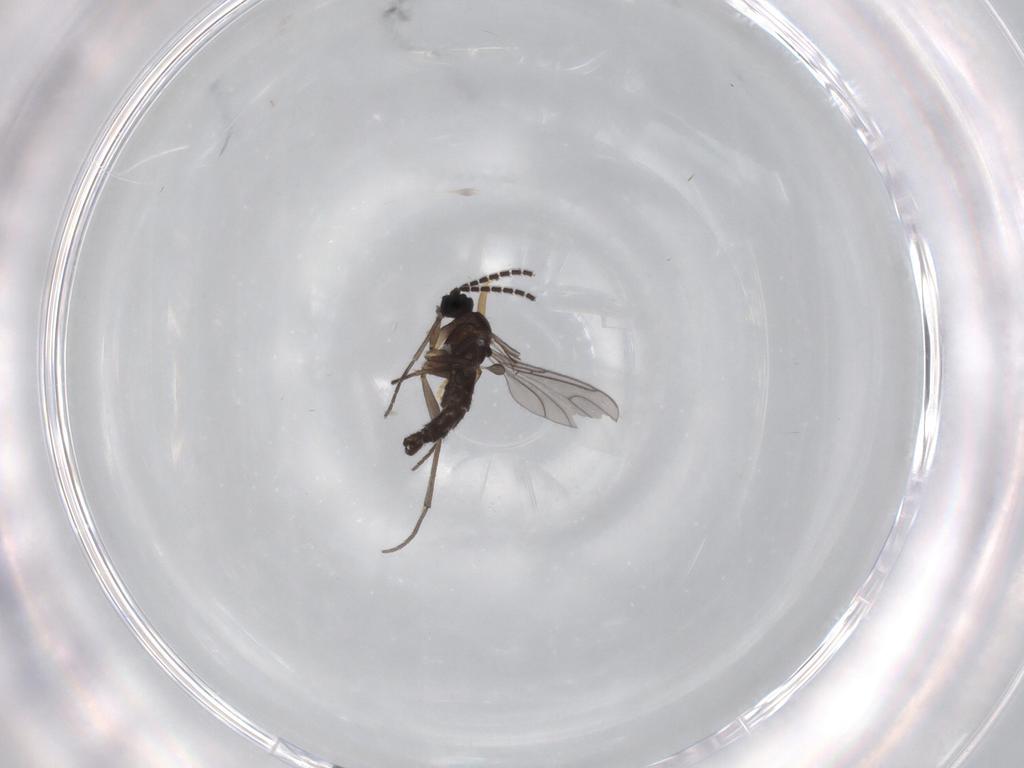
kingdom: Animalia
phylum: Arthropoda
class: Insecta
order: Diptera
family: Sciaridae
